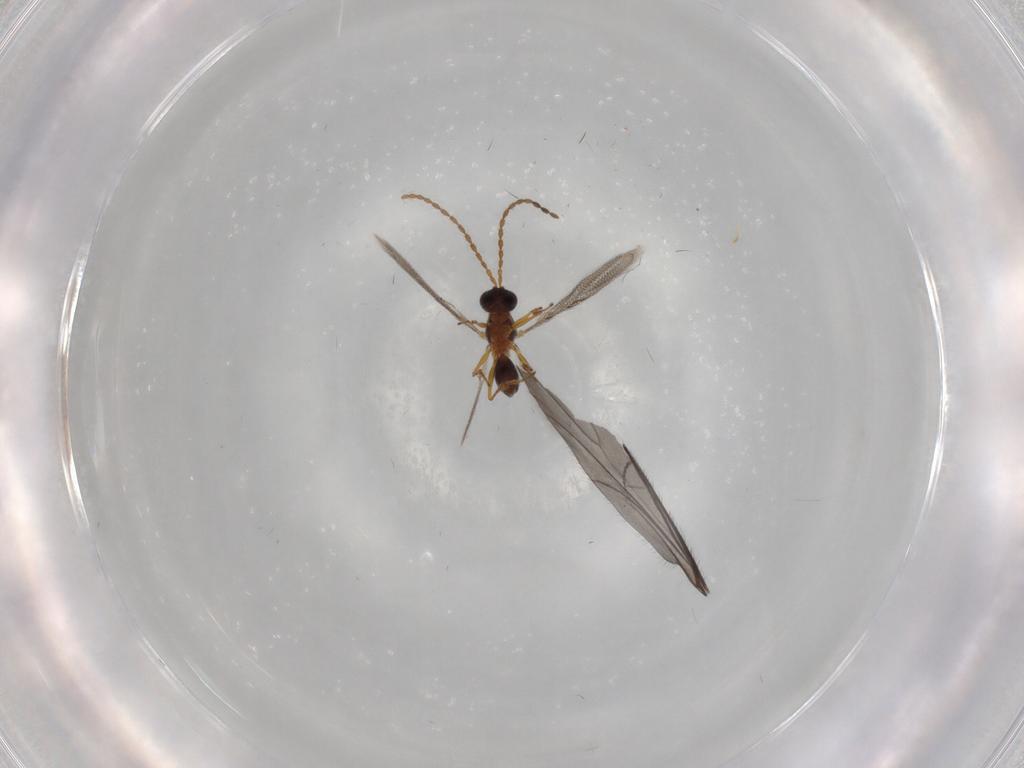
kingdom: Animalia
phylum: Arthropoda
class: Insecta
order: Hymenoptera
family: Figitidae
